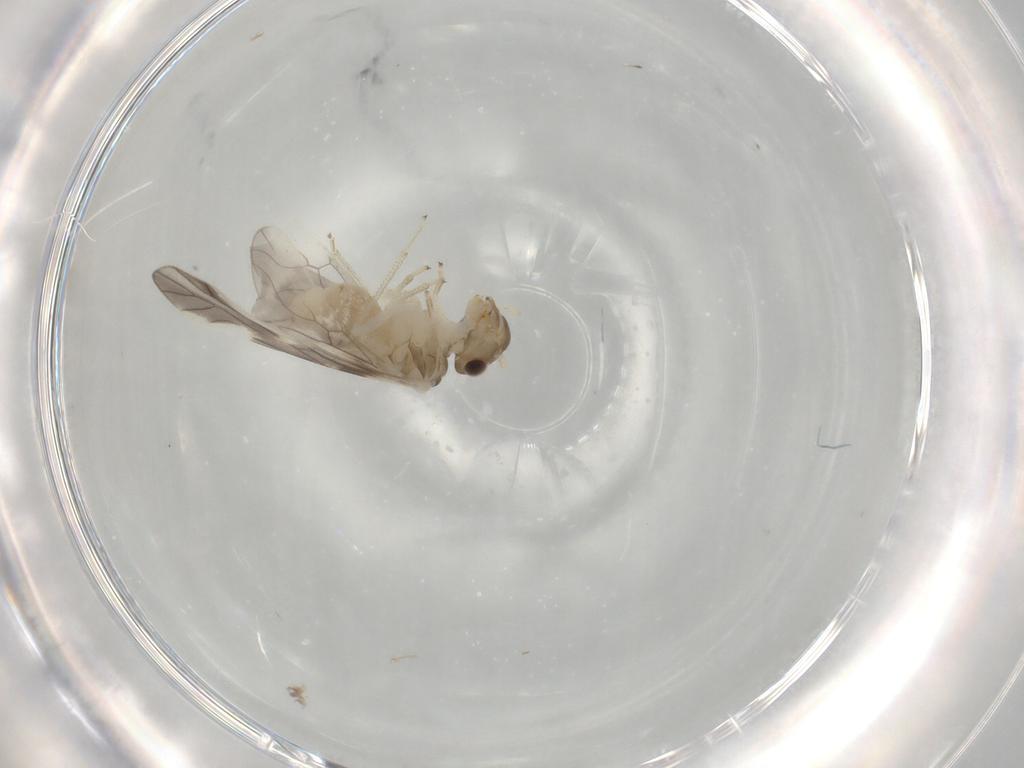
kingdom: Animalia
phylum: Arthropoda
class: Insecta
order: Psocodea
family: Caeciliusidae
